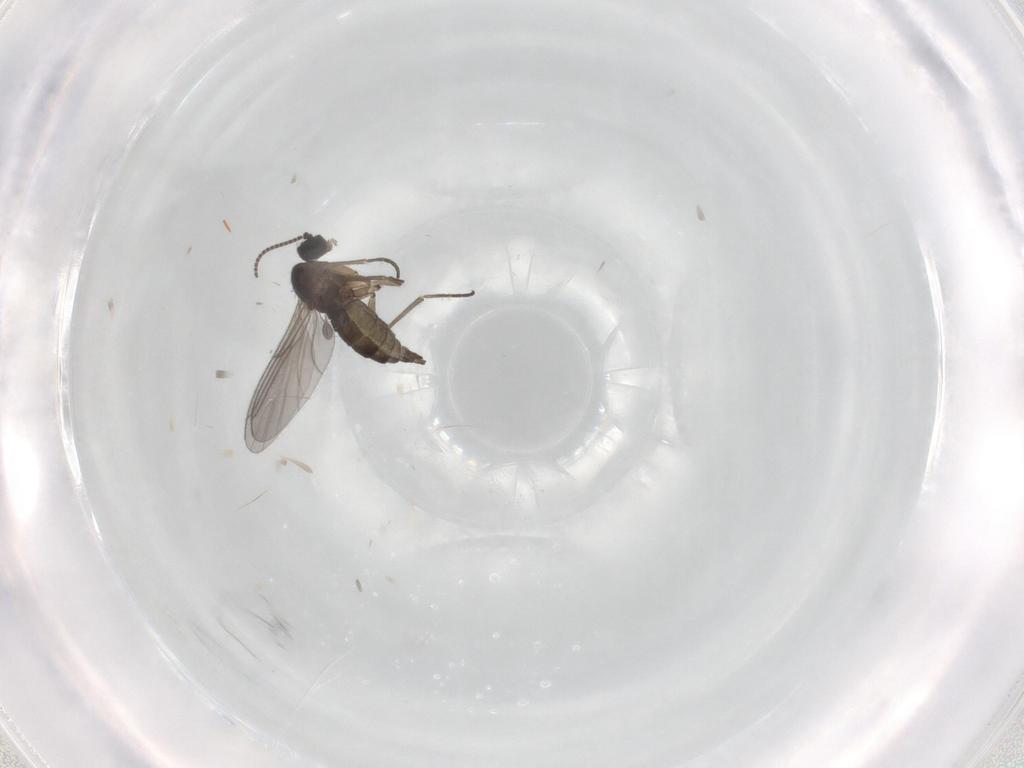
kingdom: Animalia
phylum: Arthropoda
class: Insecta
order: Diptera
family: Sciaridae
